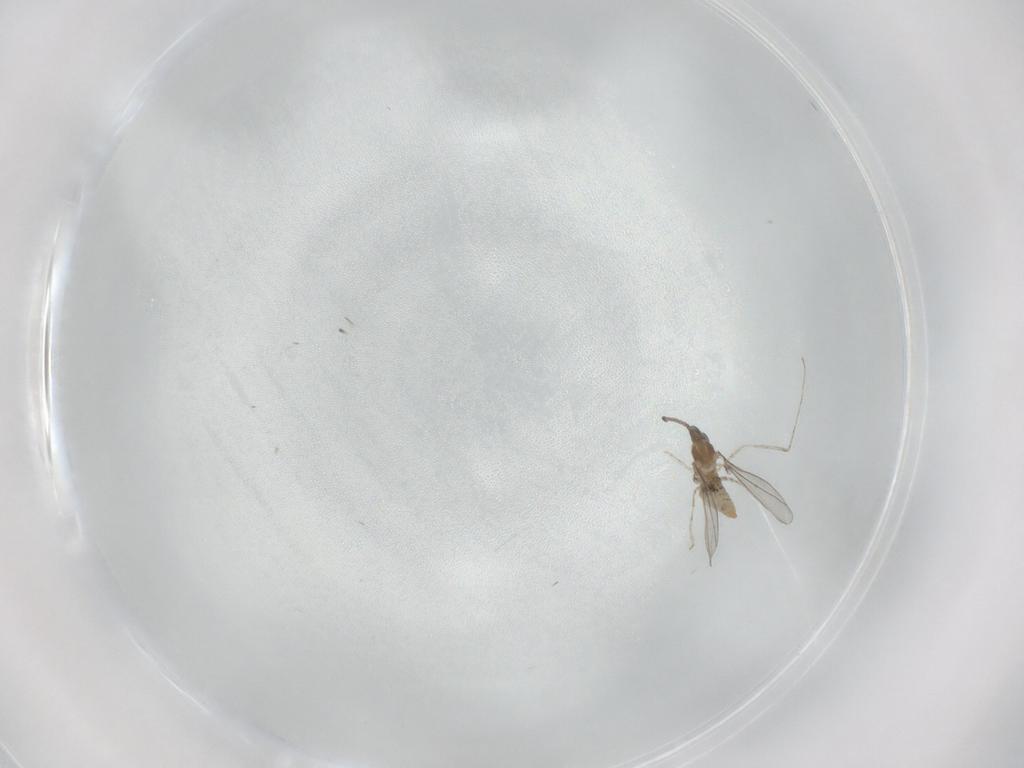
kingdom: Animalia
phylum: Arthropoda
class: Insecta
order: Diptera
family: Cecidomyiidae
